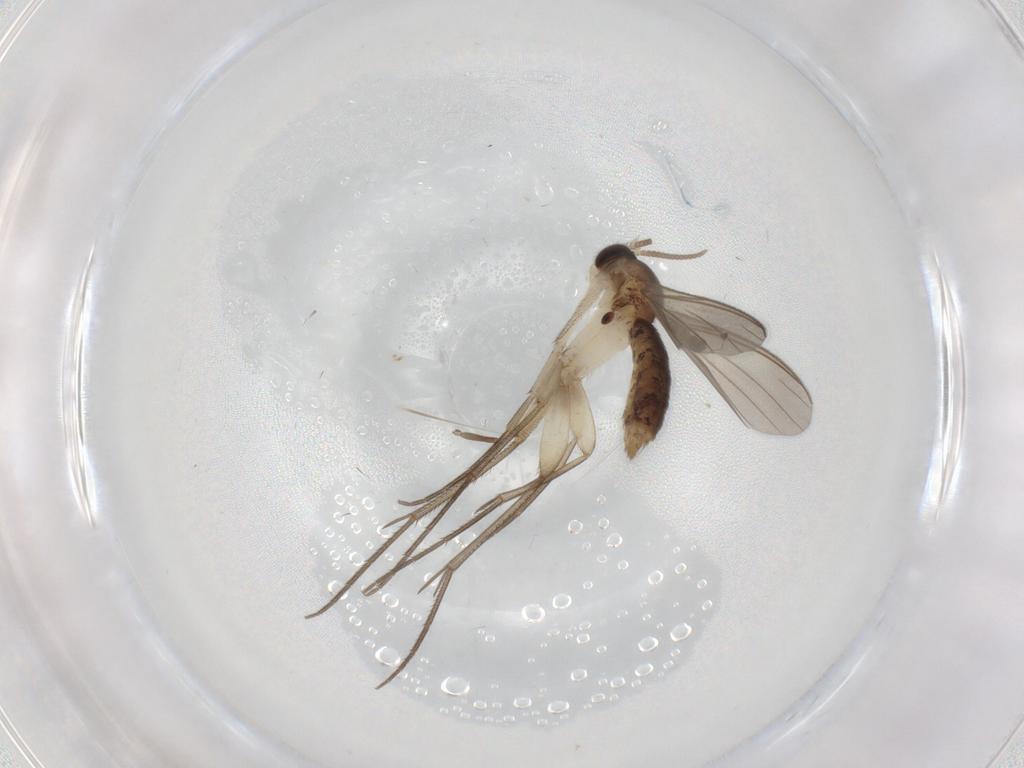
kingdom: Animalia
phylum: Arthropoda
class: Insecta
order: Diptera
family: Mycetophilidae
